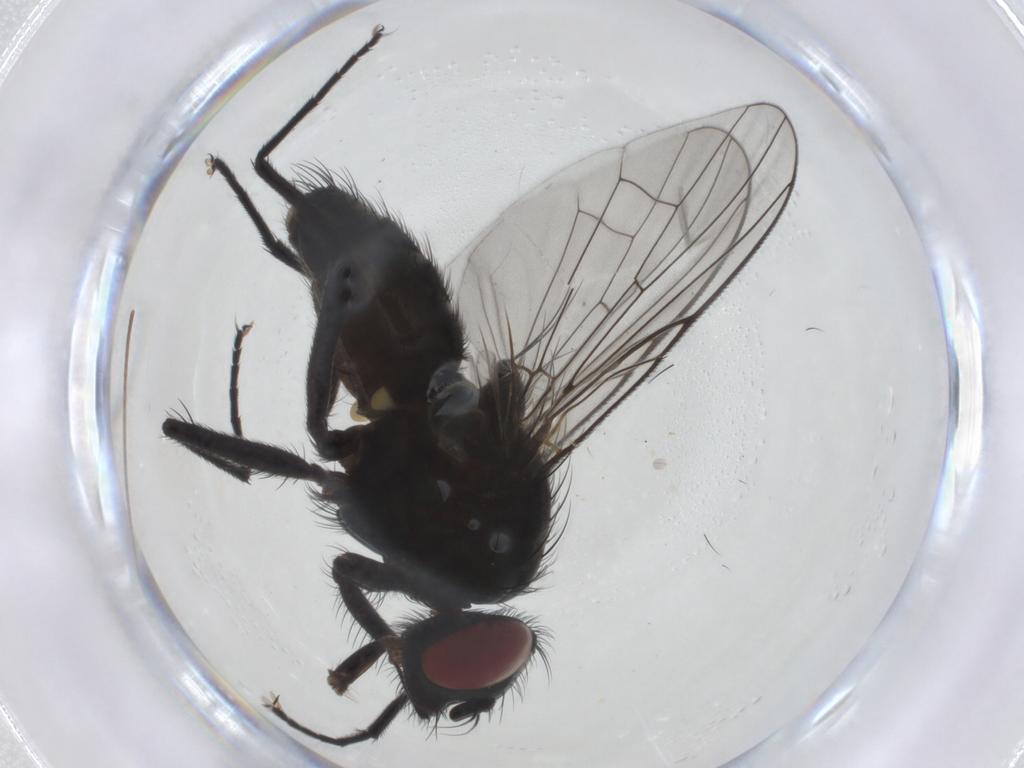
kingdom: Animalia
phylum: Arthropoda
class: Insecta
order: Diptera
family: Muscidae
